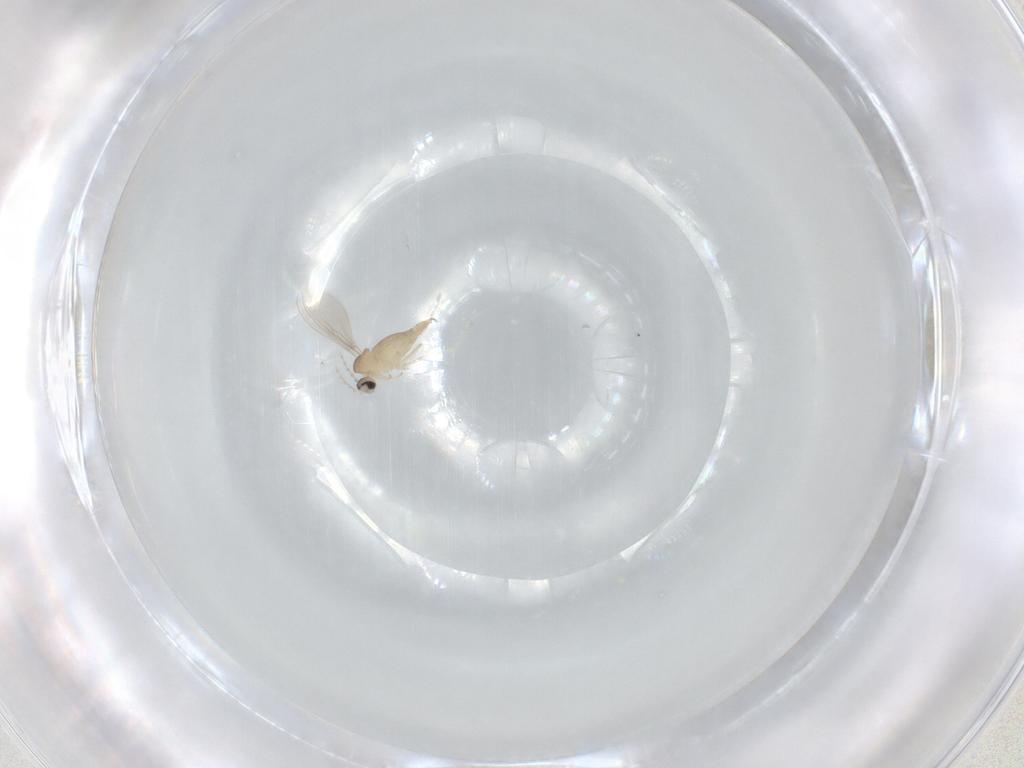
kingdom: Animalia
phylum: Arthropoda
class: Insecta
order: Diptera
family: Cecidomyiidae
